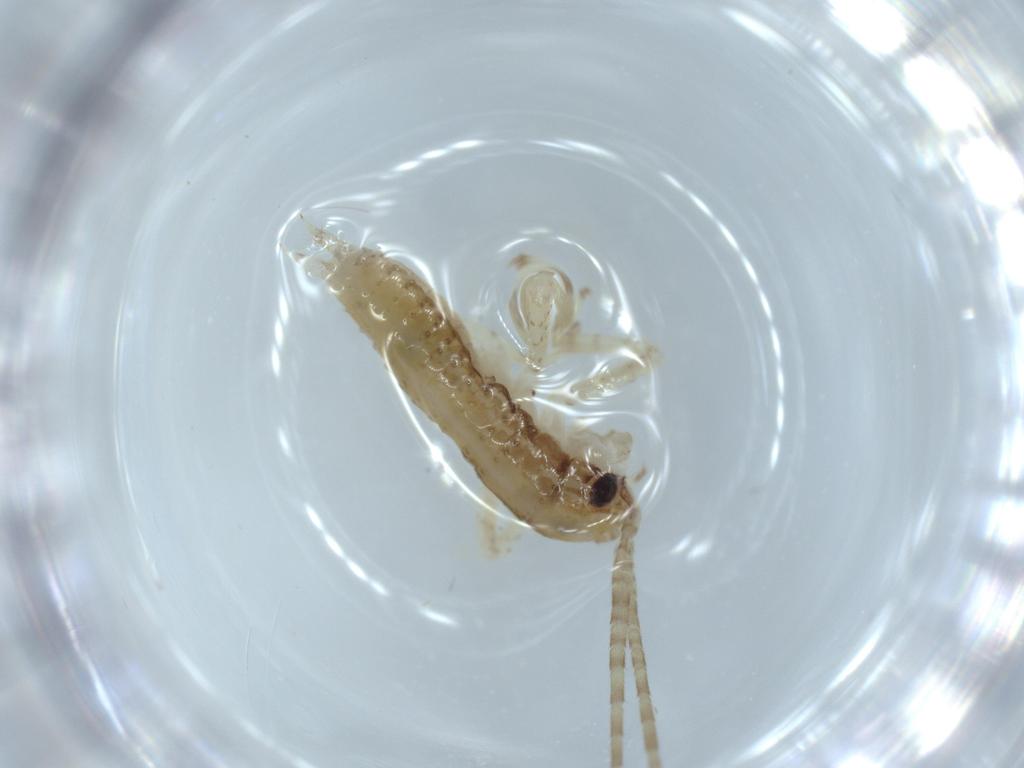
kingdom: Animalia
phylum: Arthropoda
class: Insecta
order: Orthoptera
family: Gryllidae
